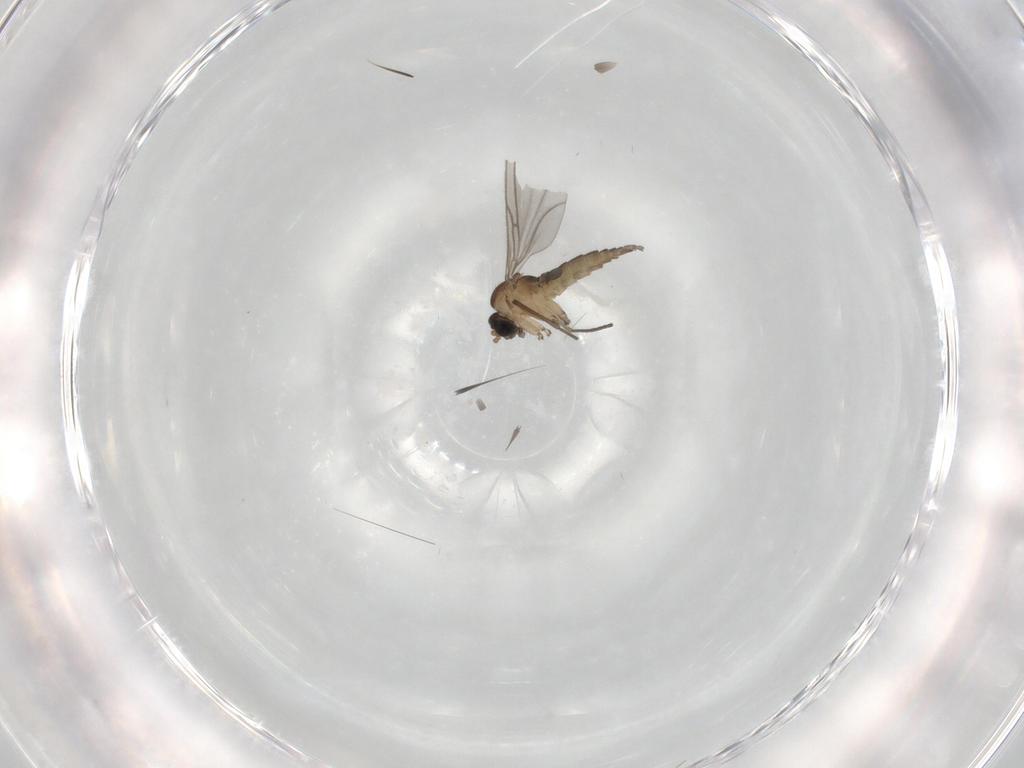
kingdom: Animalia
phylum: Arthropoda
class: Insecta
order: Diptera
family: Sciaridae
